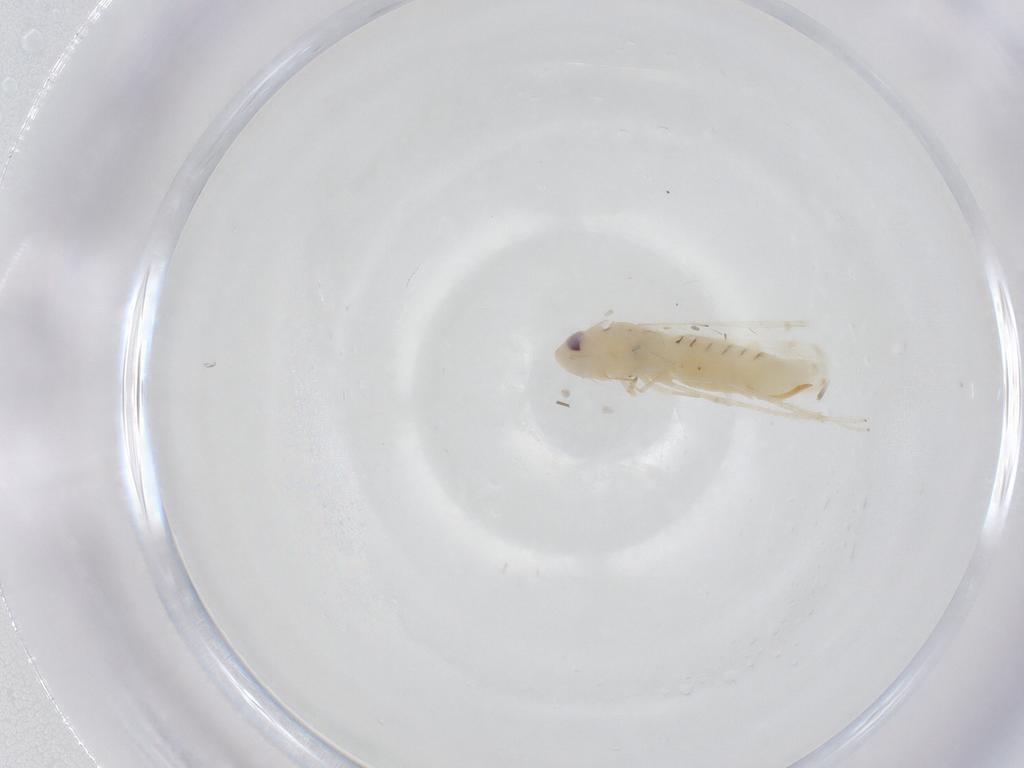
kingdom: Animalia
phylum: Arthropoda
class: Insecta
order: Hemiptera
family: Cicadellidae
